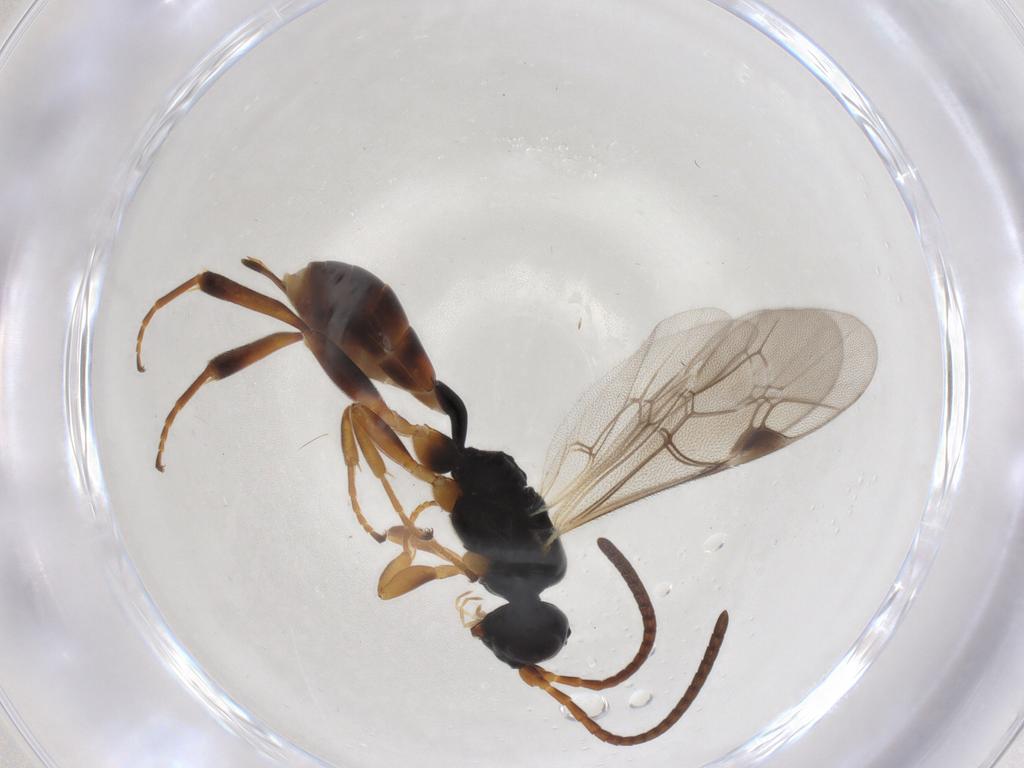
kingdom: Animalia
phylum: Arthropoda
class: Insecta
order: Hymenoptera
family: Ichneumonidae
